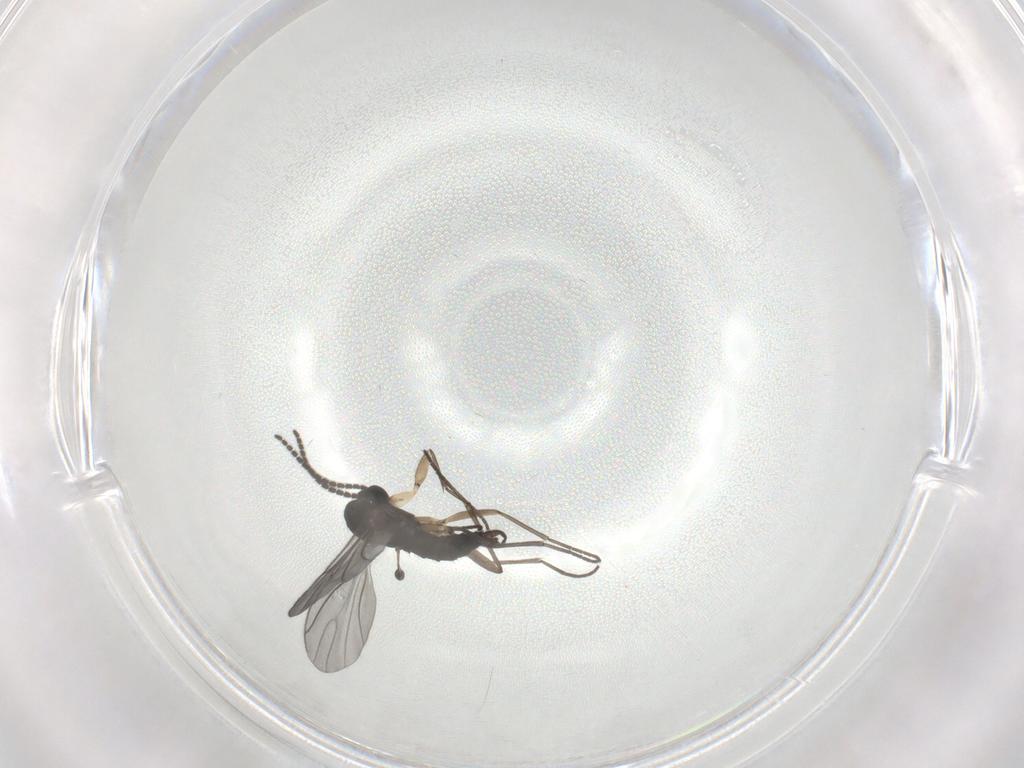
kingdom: Animalia
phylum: Arthropoda
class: Insecta
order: Diptera
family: Sciaridae
